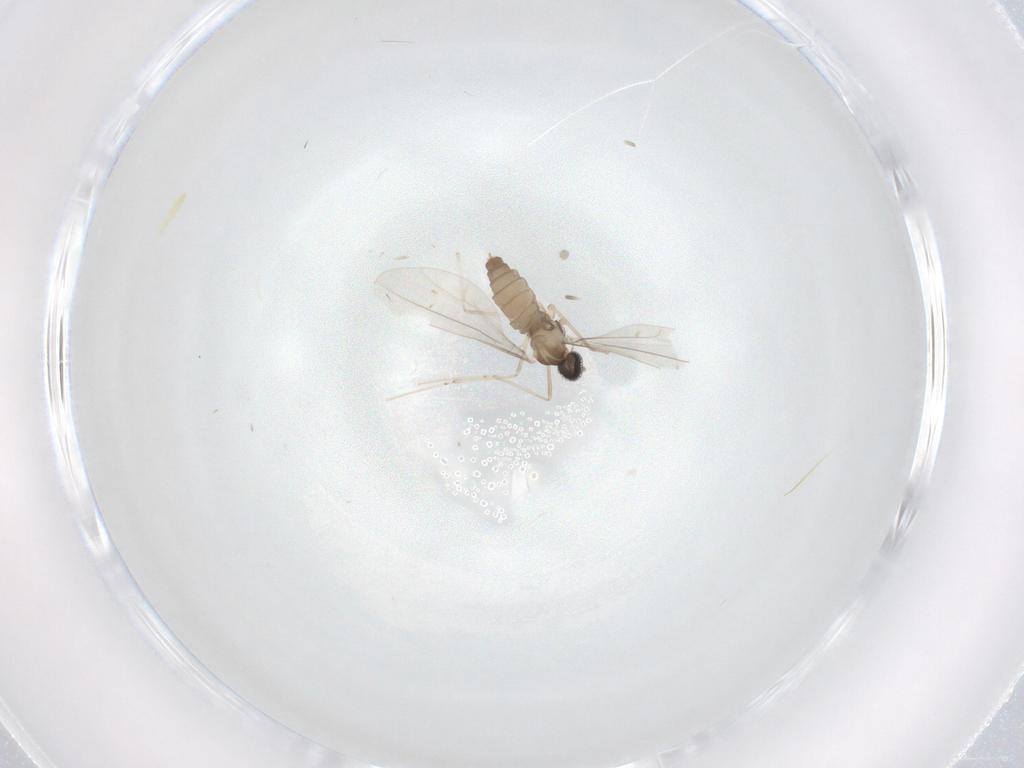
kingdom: Animalia
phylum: Arthropoda
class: Insecta
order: Diptera
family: Cecidomyiidae
